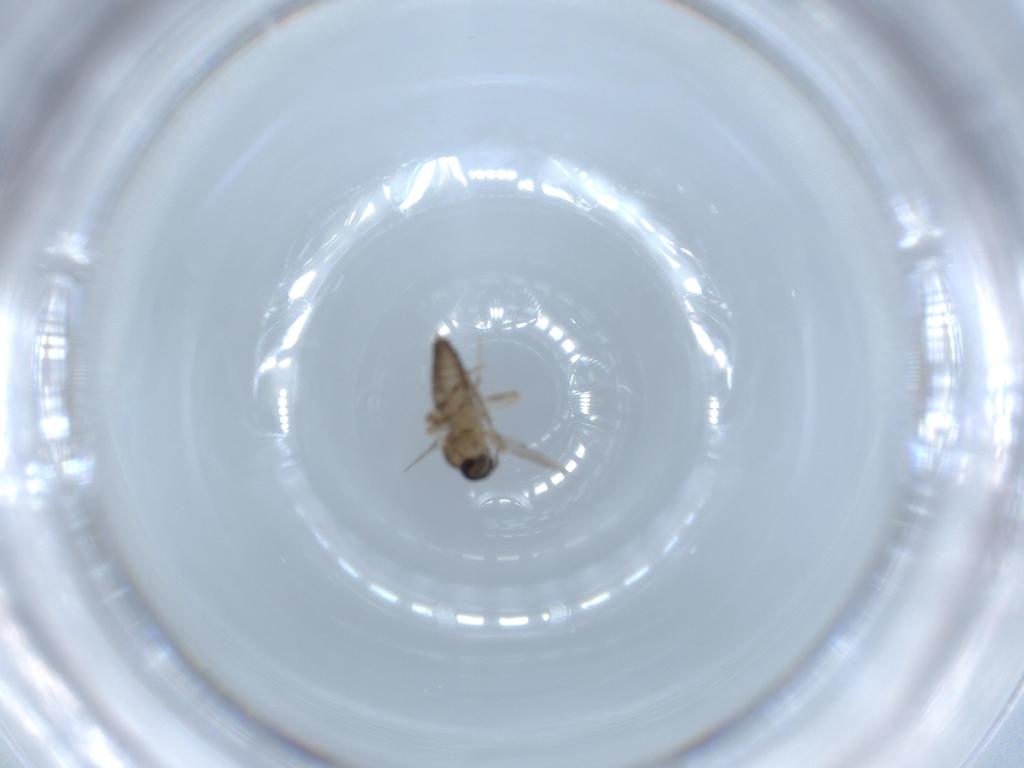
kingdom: Animalia
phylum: Arthropoda
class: Insecta
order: Diptera
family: Ceratopogonidae
